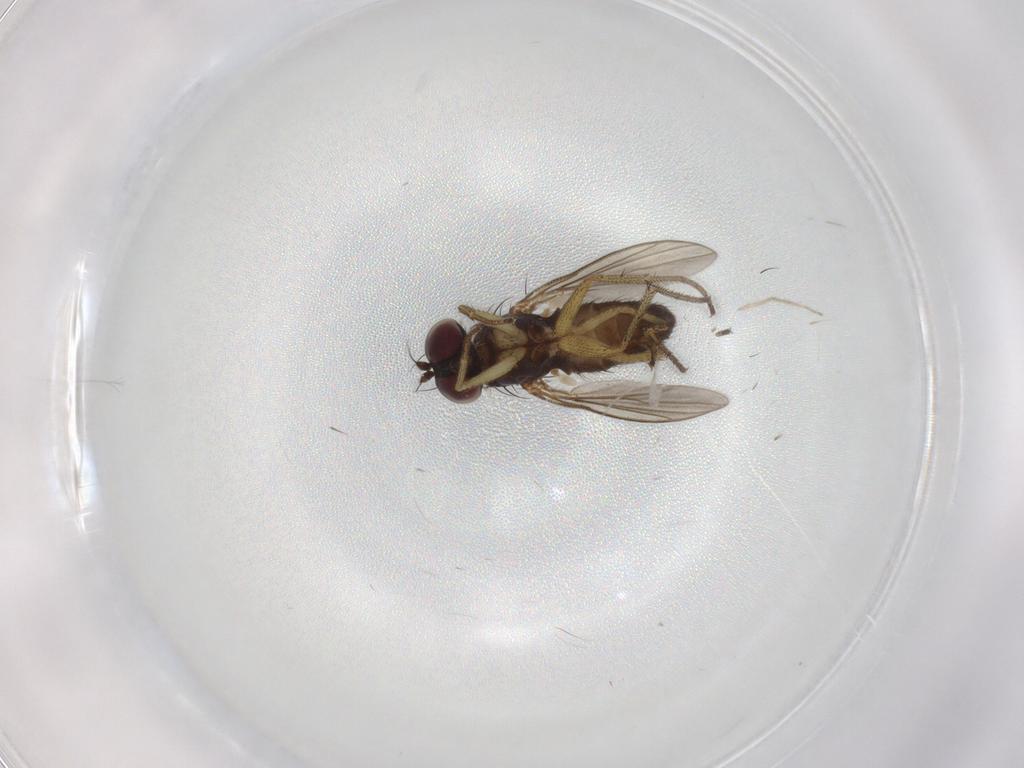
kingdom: Animalia
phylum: Arthropoda
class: Insecta
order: Diptera
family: Dolichopodidae
